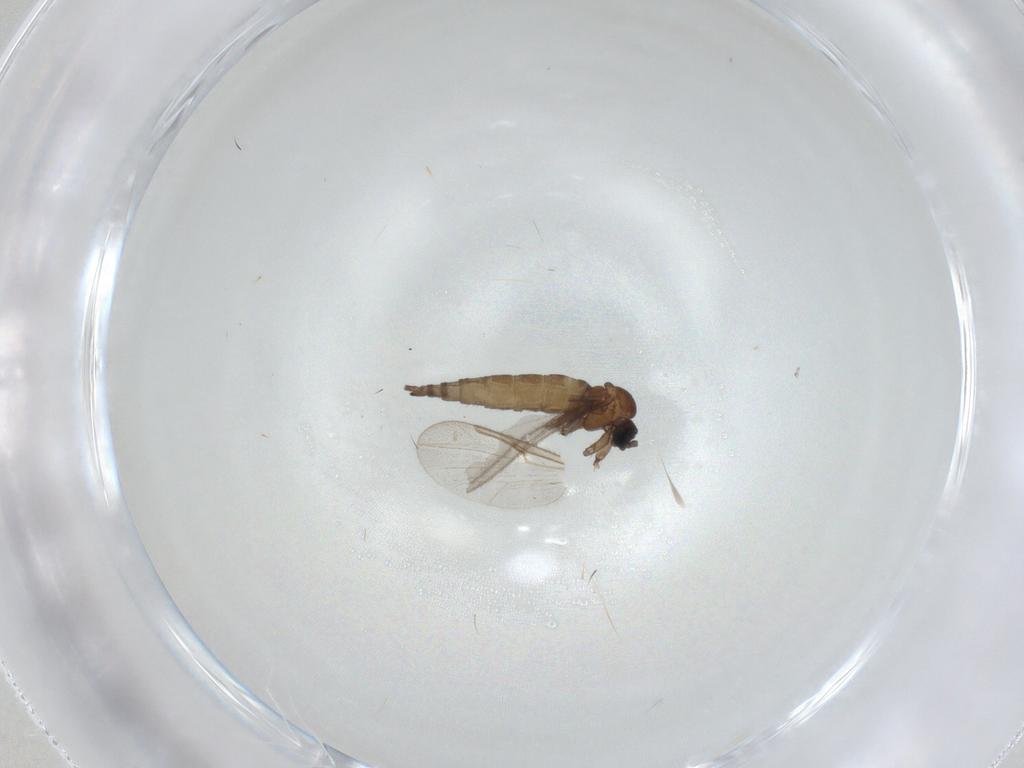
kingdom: Animalia
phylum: Arthropoda
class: Insecta
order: Diptera
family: Sciaridae
